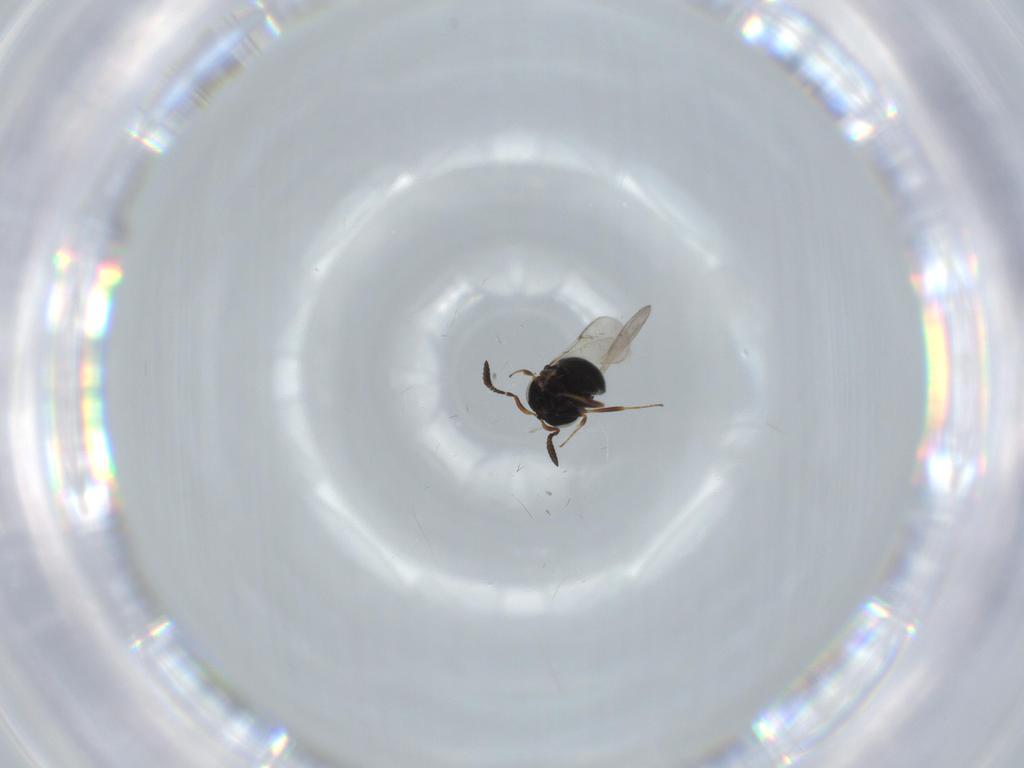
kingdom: Animalia
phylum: Arthropoda
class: Insecta
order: Hymenoptera
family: Scelionidae
